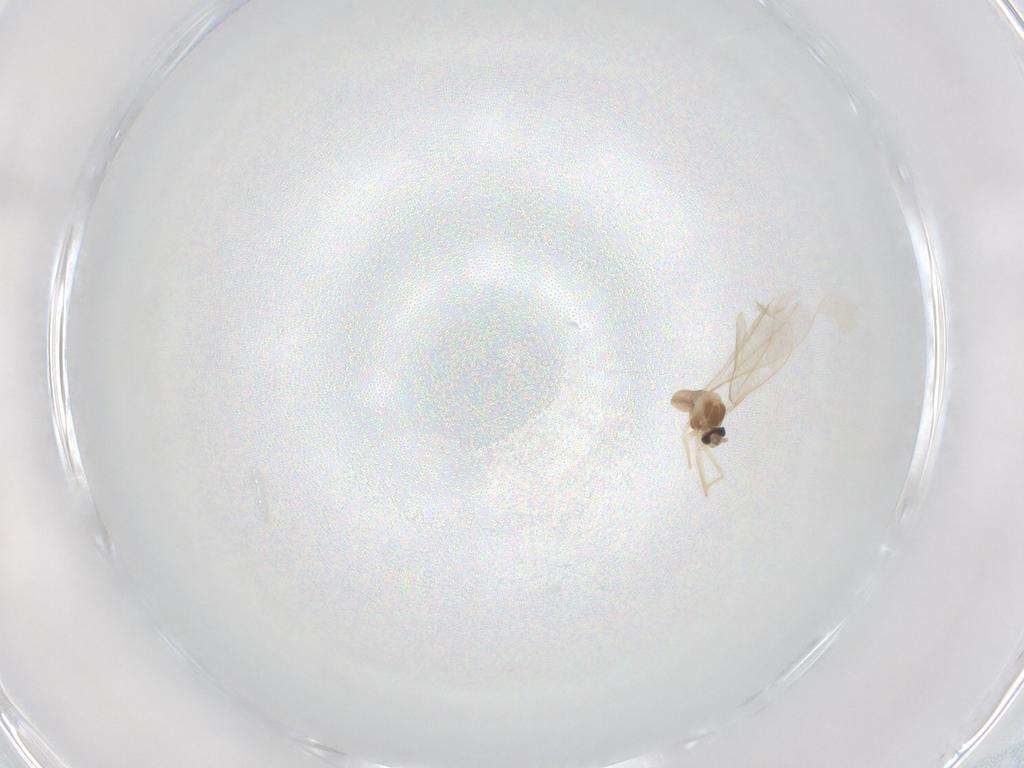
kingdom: Animalia
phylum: Arthropoda
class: Insecta
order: Diptera
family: Cecidomyiidae
